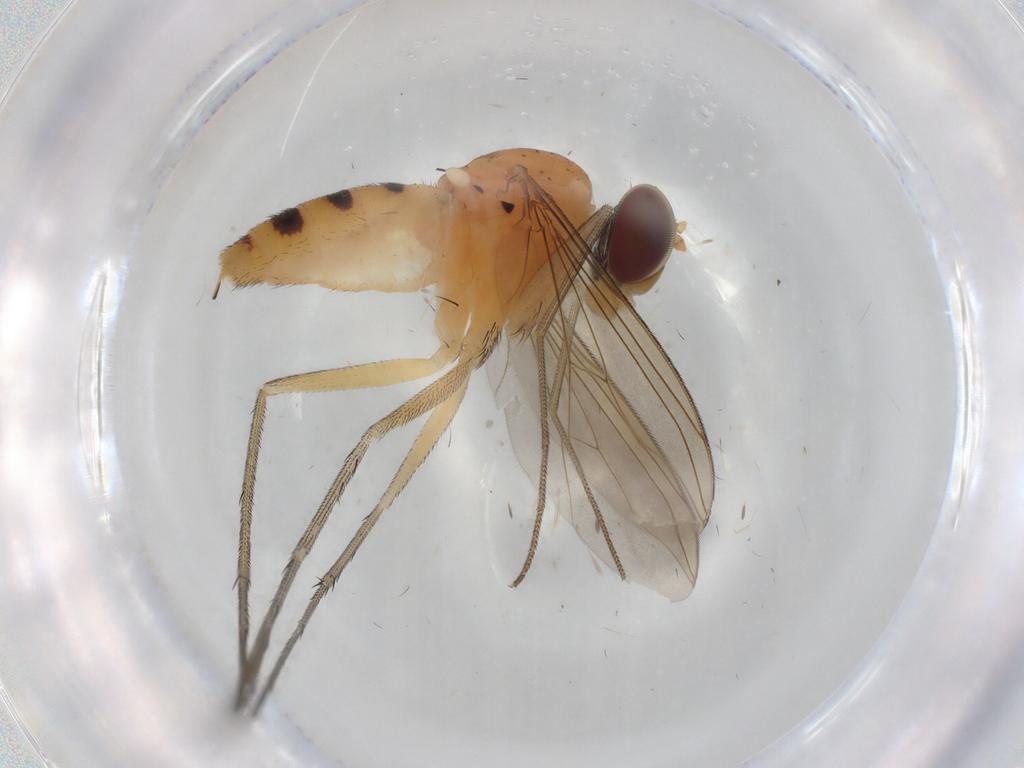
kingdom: Animalia
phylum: Arthropoda
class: Insecta
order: Diptera
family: Dolichopodidae
